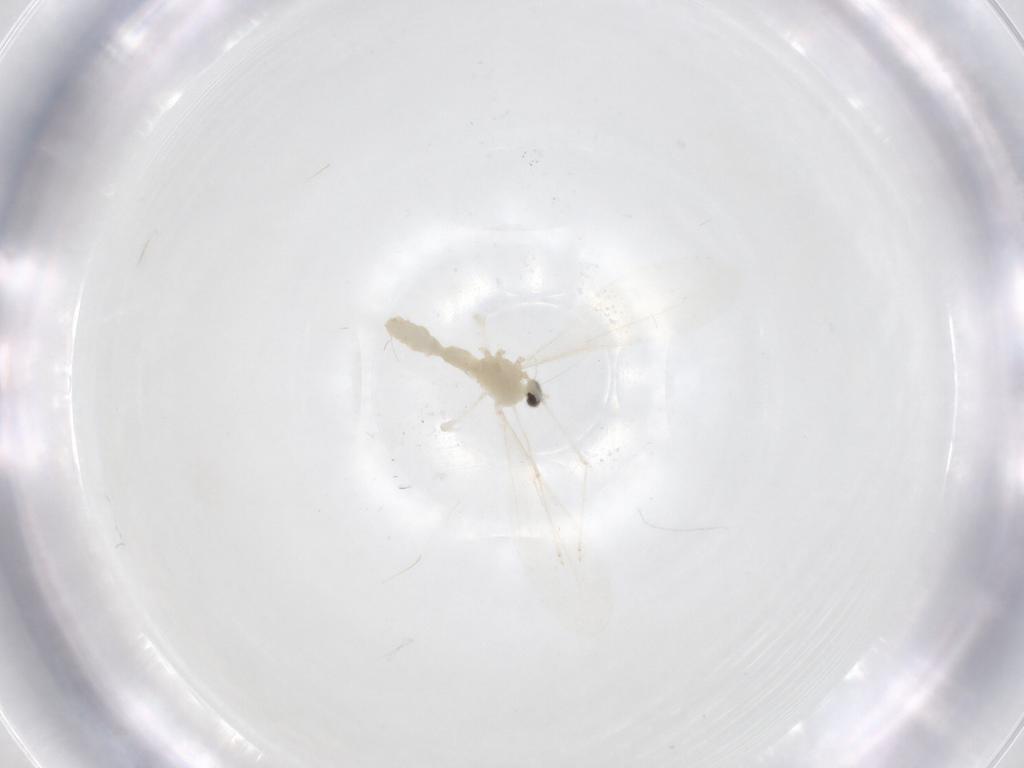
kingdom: Animalia
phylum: Arthropoda
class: Insecta
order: Diptera
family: Cecidomyiidae
